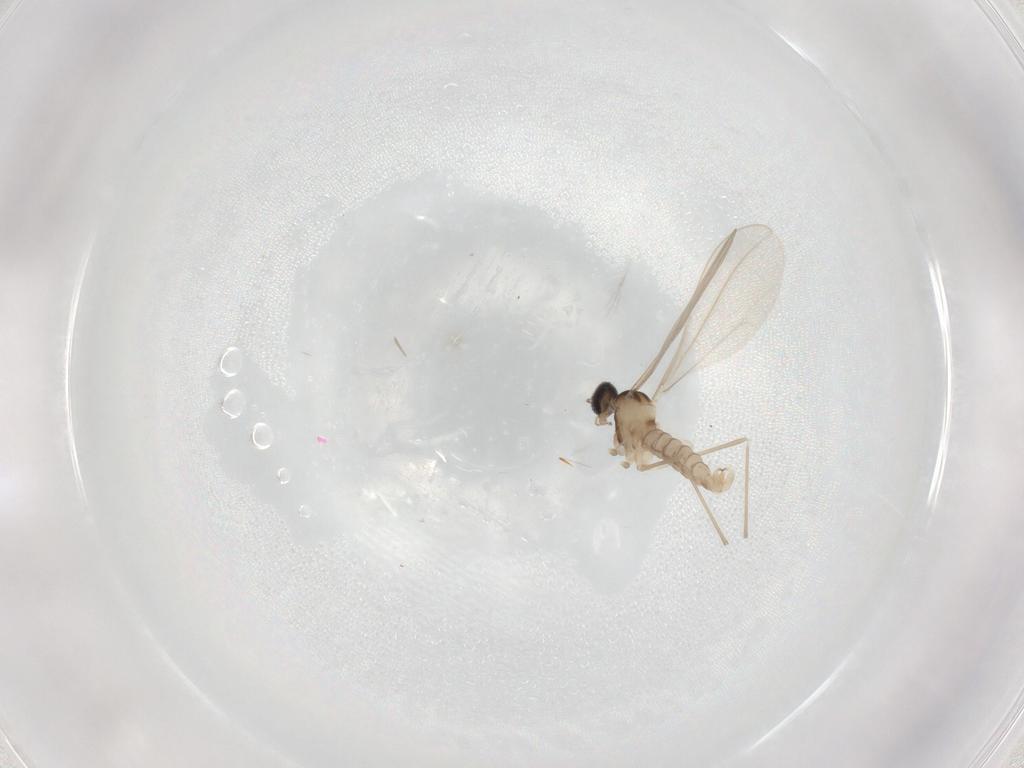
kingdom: Animalia
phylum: Arthropoda
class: Insecta
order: Diptera
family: Cecidomyiidae
